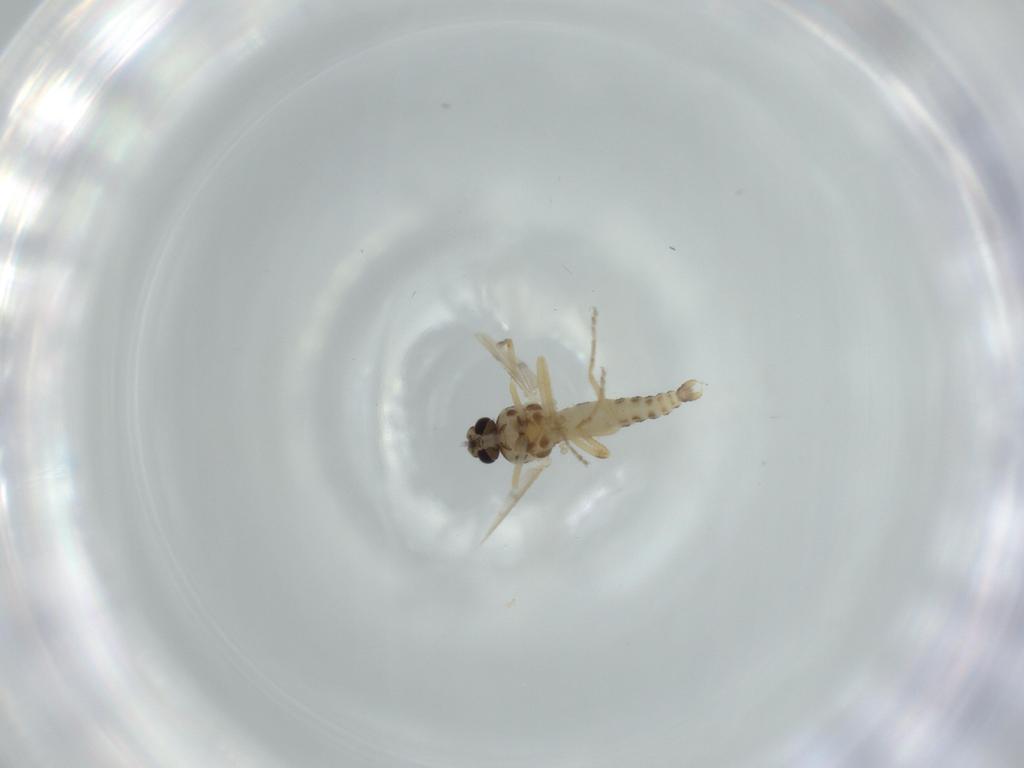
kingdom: Animalia
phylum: Arthropoda
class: Insecta
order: Diptera
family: Ceratopogonidae
